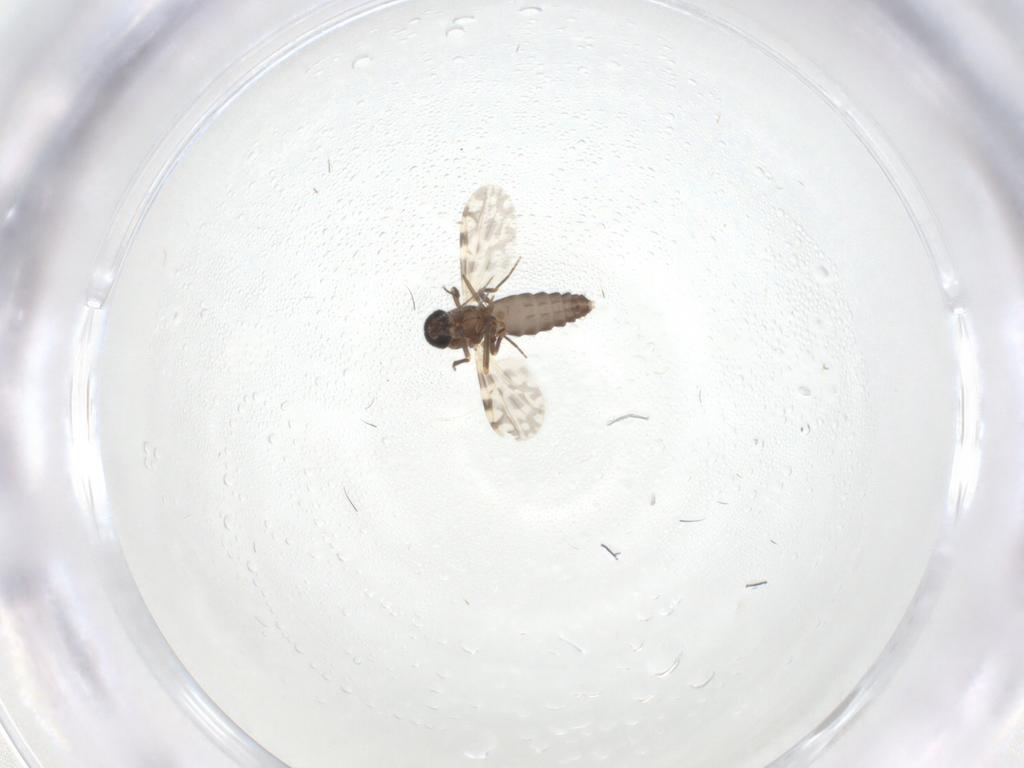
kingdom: Animalia
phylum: Arthropoda
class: Insecta
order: Diptera
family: Ceratopogonidae
